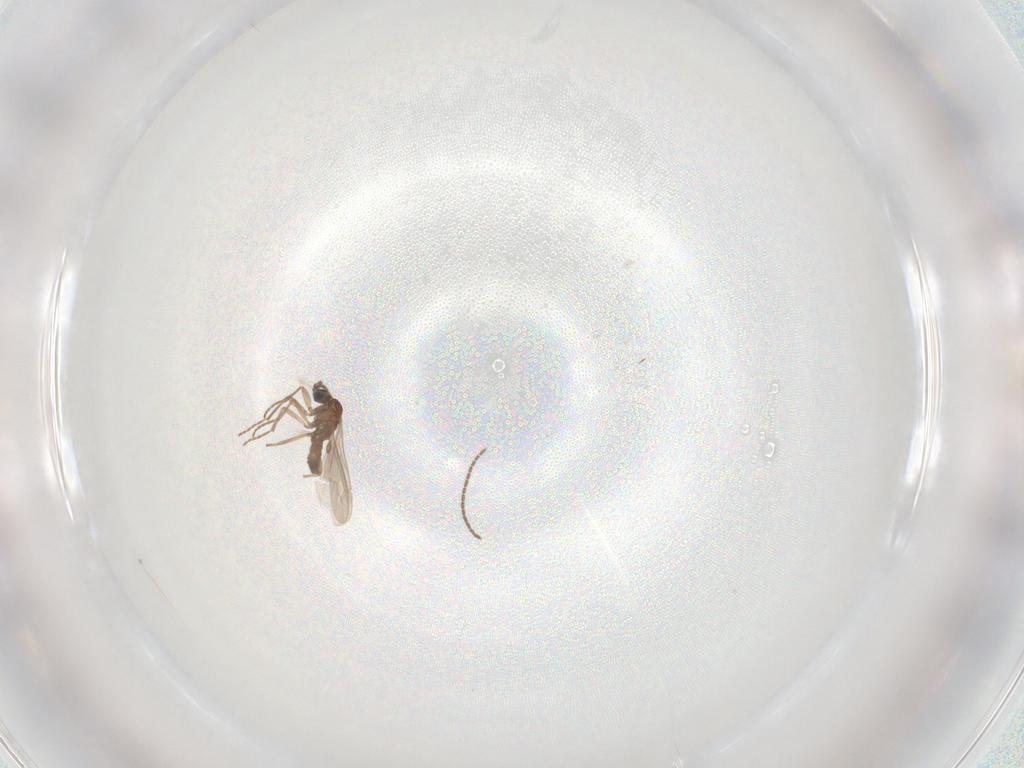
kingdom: Animalia
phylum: Arthropoda
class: Insecta
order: Diptera
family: Sciaridae
